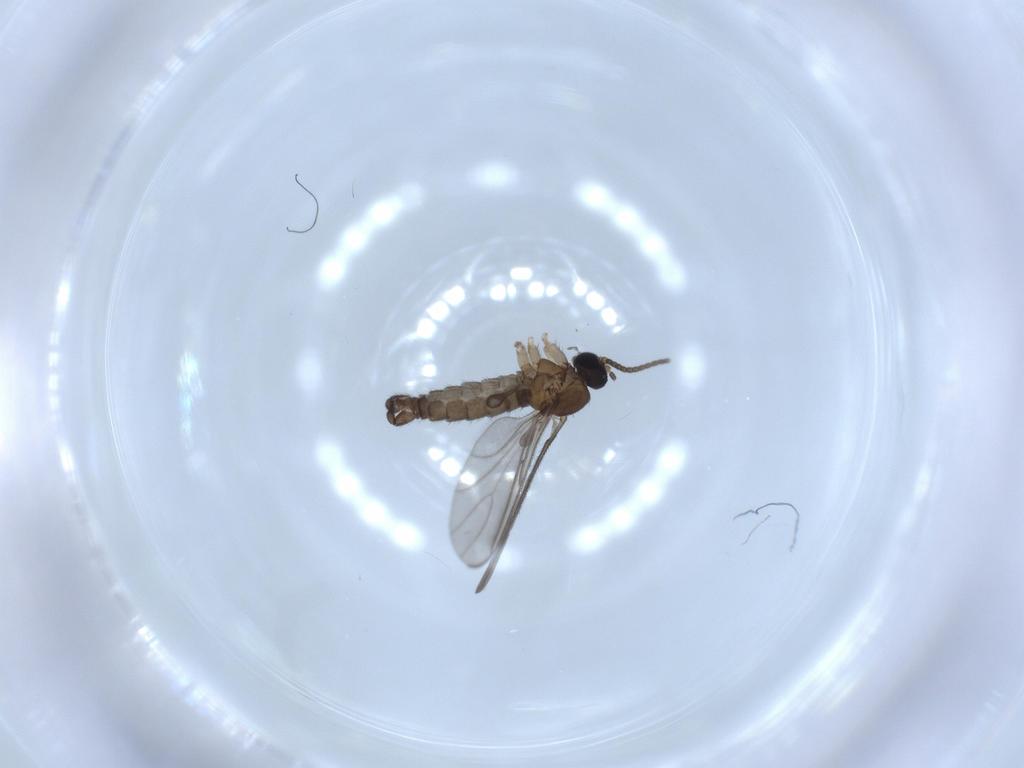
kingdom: Animalia
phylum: Arthropoda
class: Insecta
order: Diptera
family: Sciaridae
